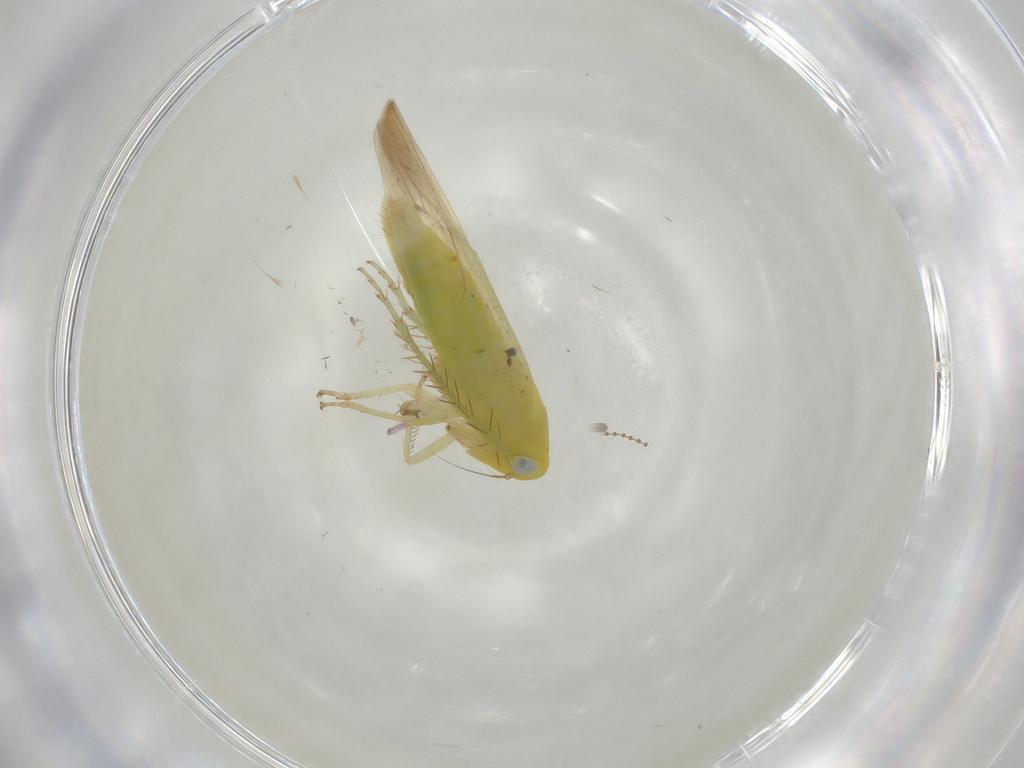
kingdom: Animalia
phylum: Arthropoda
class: Insecta
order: Hemiptera
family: Cicadellidae
